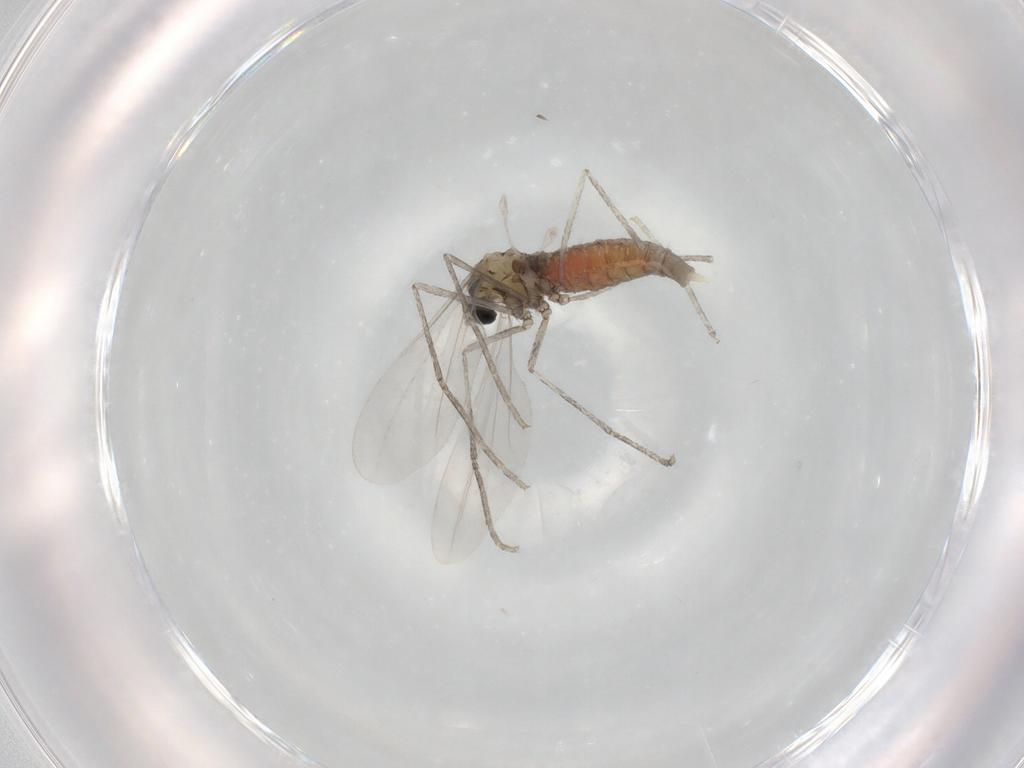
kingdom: Animalia
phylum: Arthropoda
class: Insecta
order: Diptera
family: Cecidomyiidae
